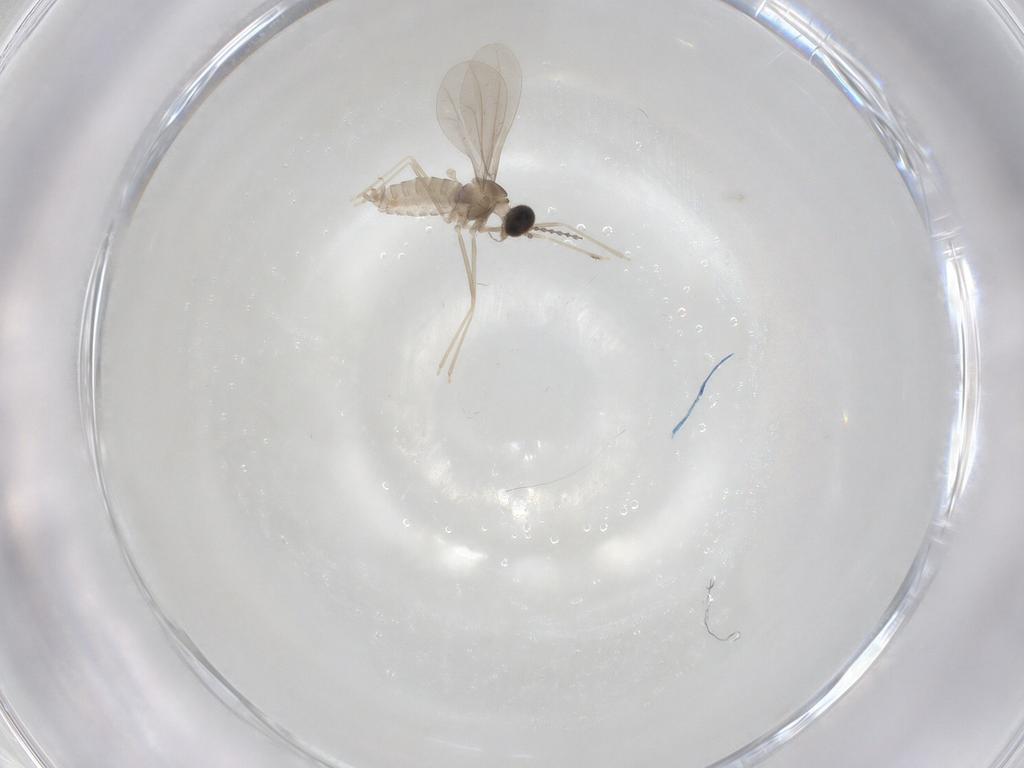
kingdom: Animalia
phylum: Arthropoda
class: Insecta
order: Diptera
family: Cecidomyiidae
